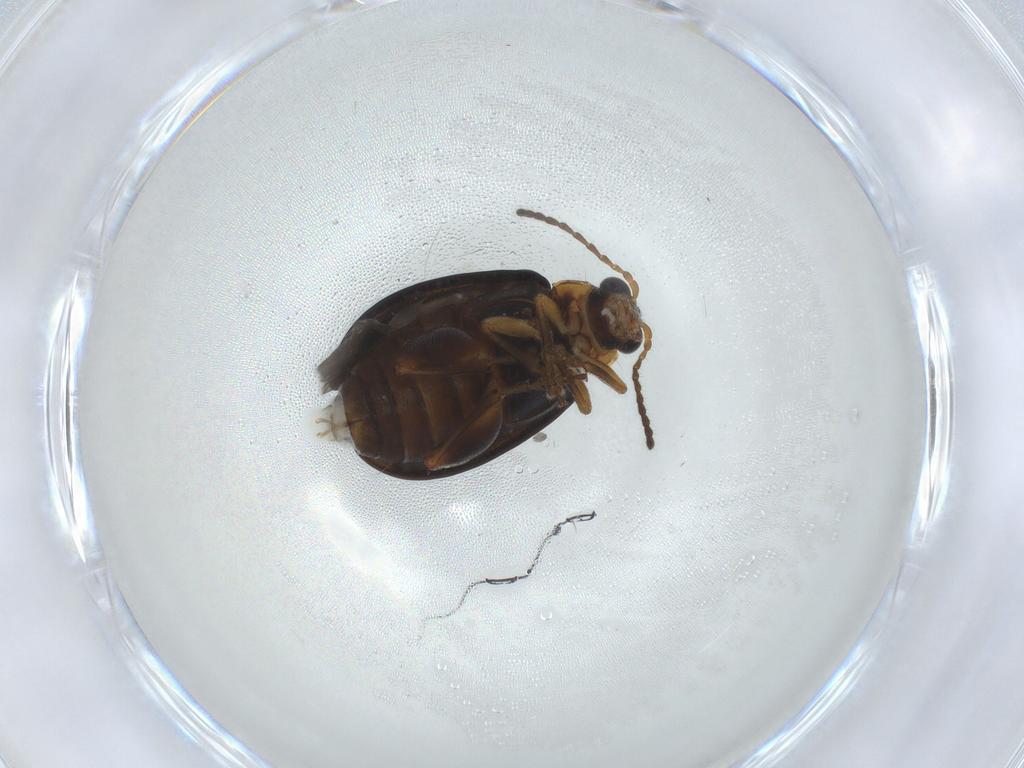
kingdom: Animalia
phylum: Arthropoda
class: Insecta
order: Coleoptera
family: Chrysomelidae
